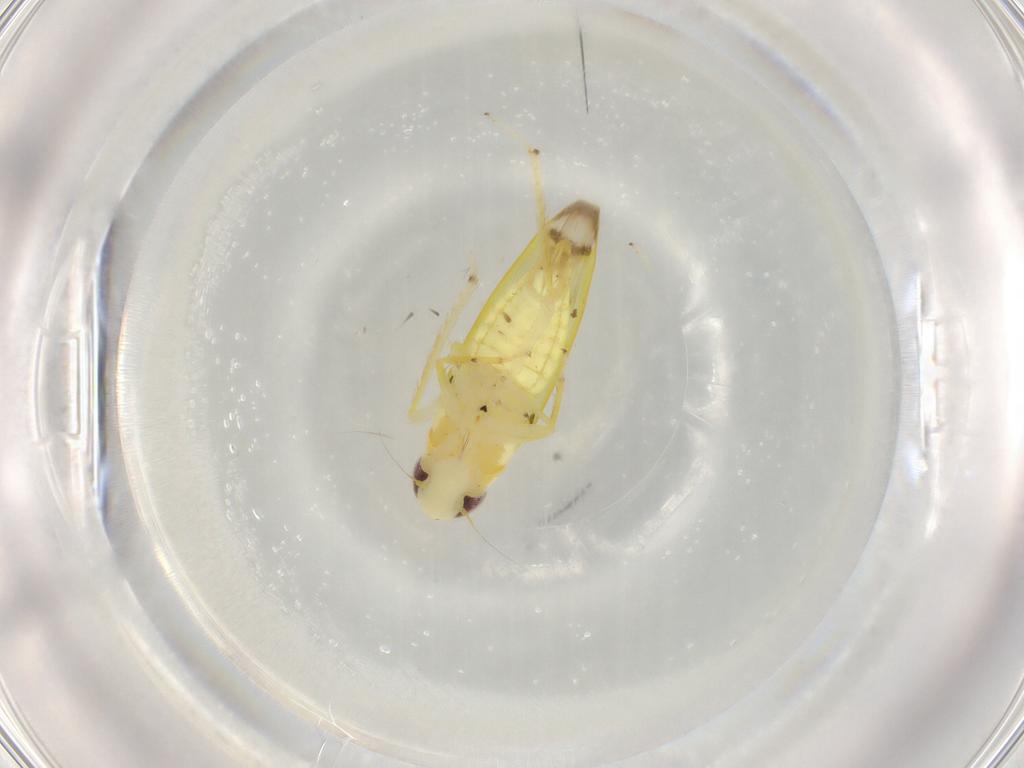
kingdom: Animalia
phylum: Arthropoda
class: Insecta
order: Hemiptera
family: Cicadellidae
